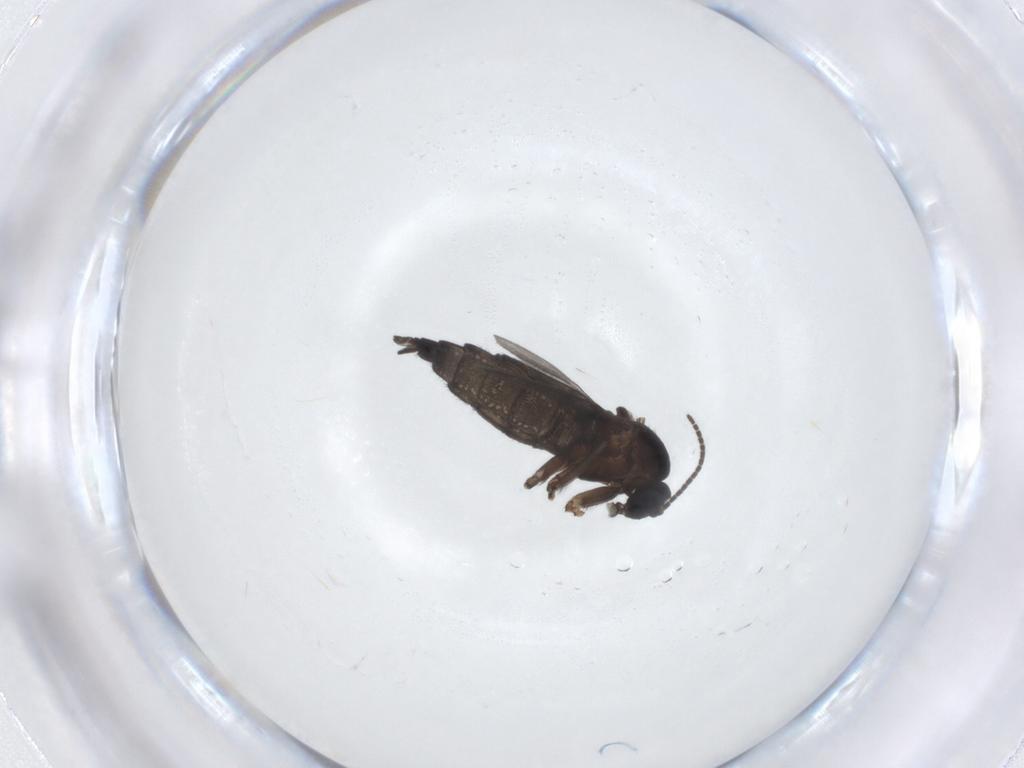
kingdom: Animalia
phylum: Arthropoda
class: Insecta
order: Diptera
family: Sciaridae
